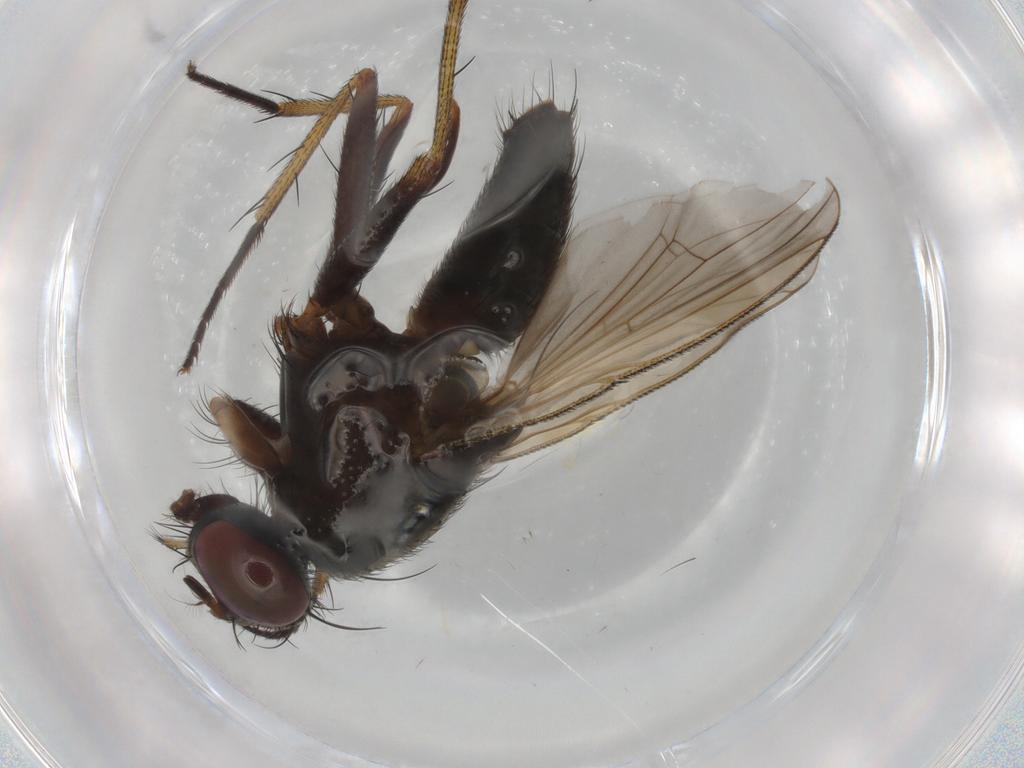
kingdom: Animalia
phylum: Arthropoda
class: Insecta
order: Diptera
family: Muscidae
